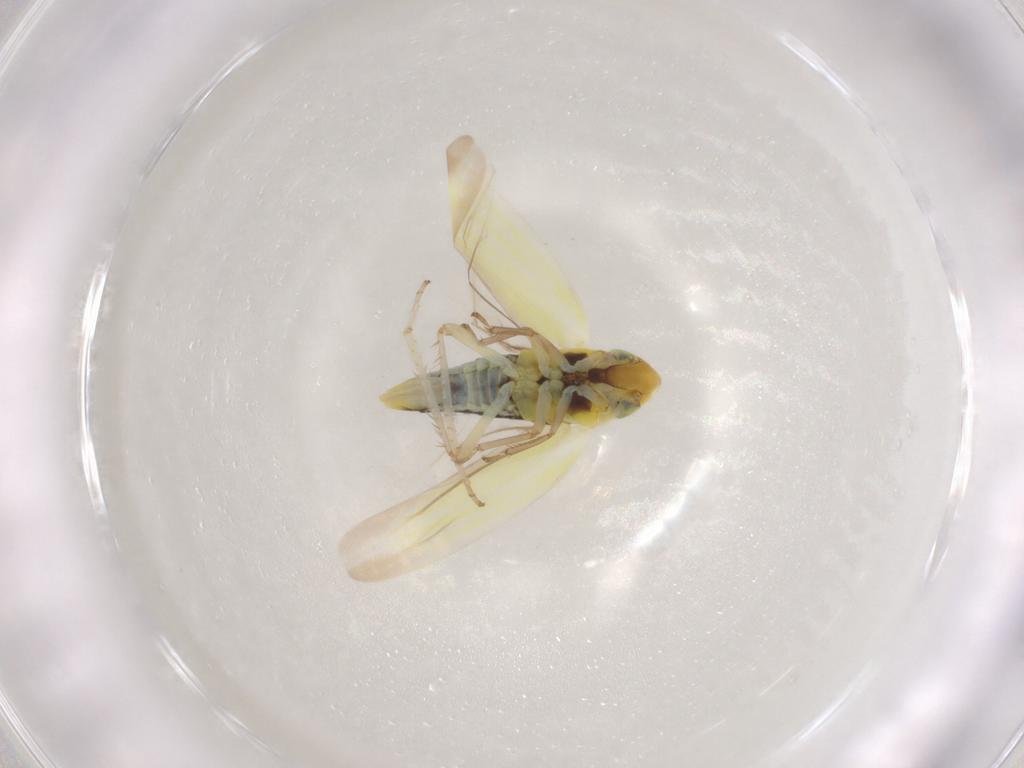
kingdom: Animalia
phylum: Arthropoda
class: Insecta
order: Hemiptera
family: Cicadellidae
